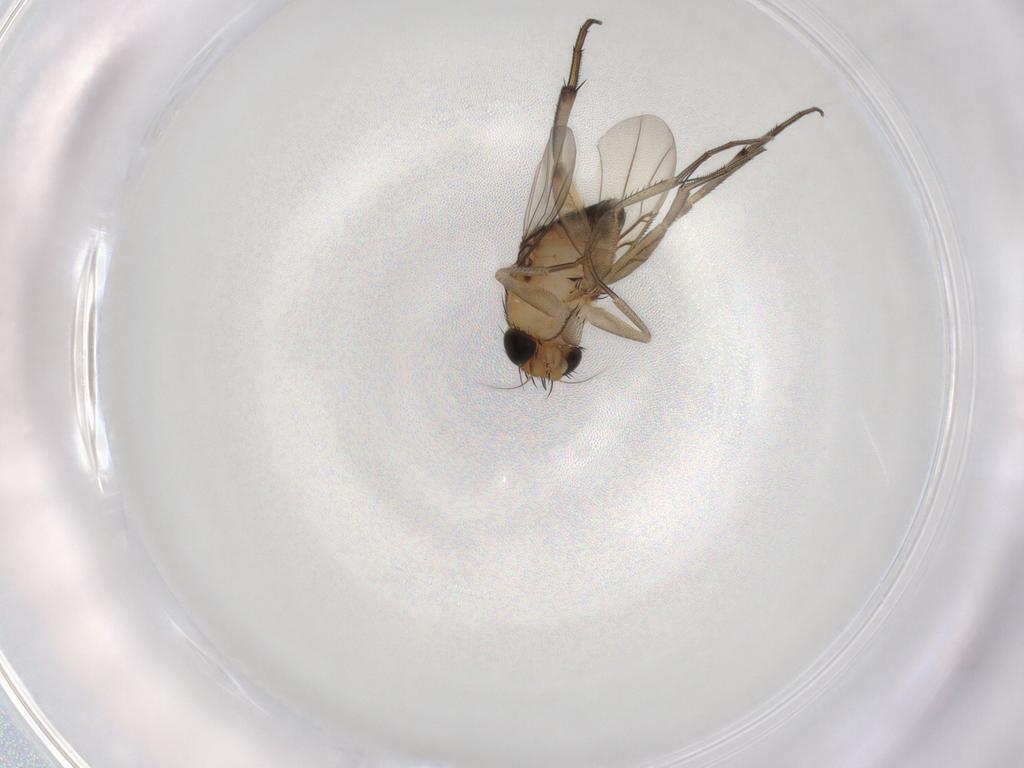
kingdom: Animalia
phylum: Arthropoda
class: Insecta
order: Diptera
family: Phoridae
